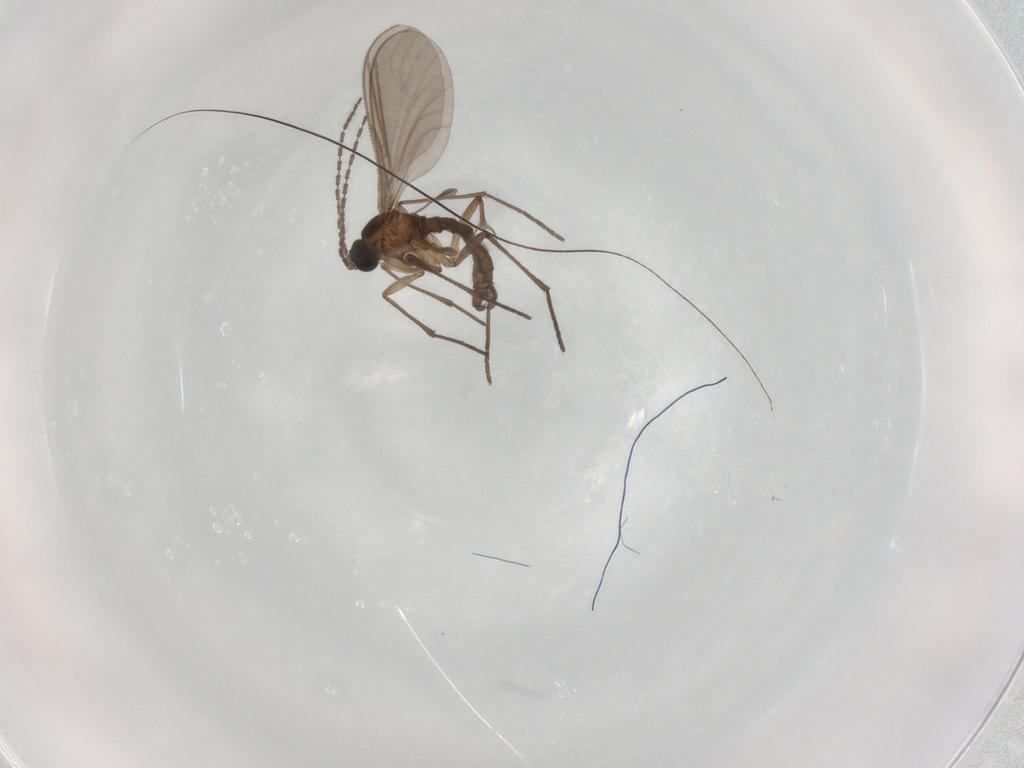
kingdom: Animalia
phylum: Arthropoda
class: Insecta
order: Diptera
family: Sciaridae
